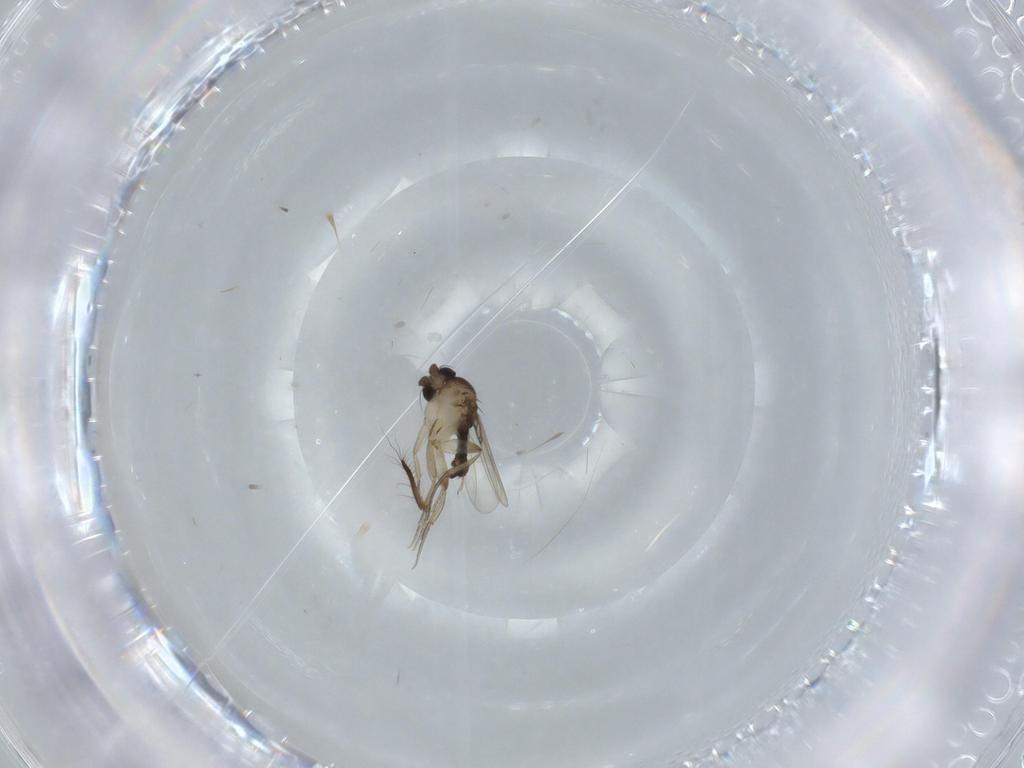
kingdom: Animalia
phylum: Arthropoda
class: Insecta
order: Diptera
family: Phoridae
